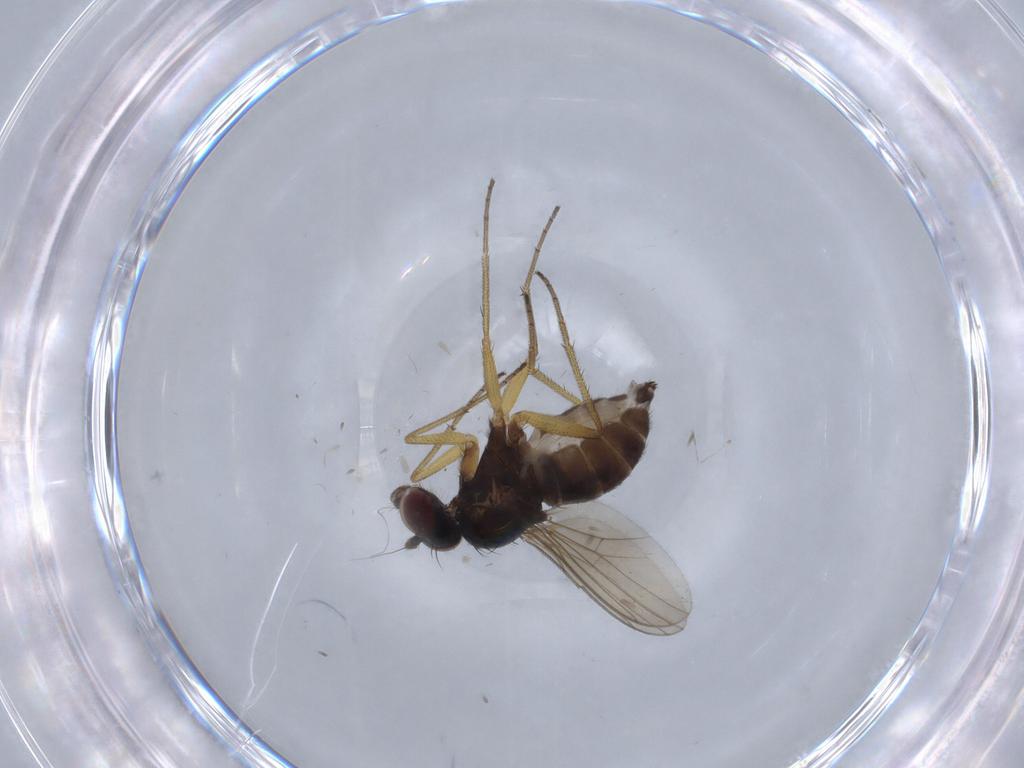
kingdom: Animalia
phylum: Arthropoda
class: Insecta
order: Diptera
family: Dolichopodidae
